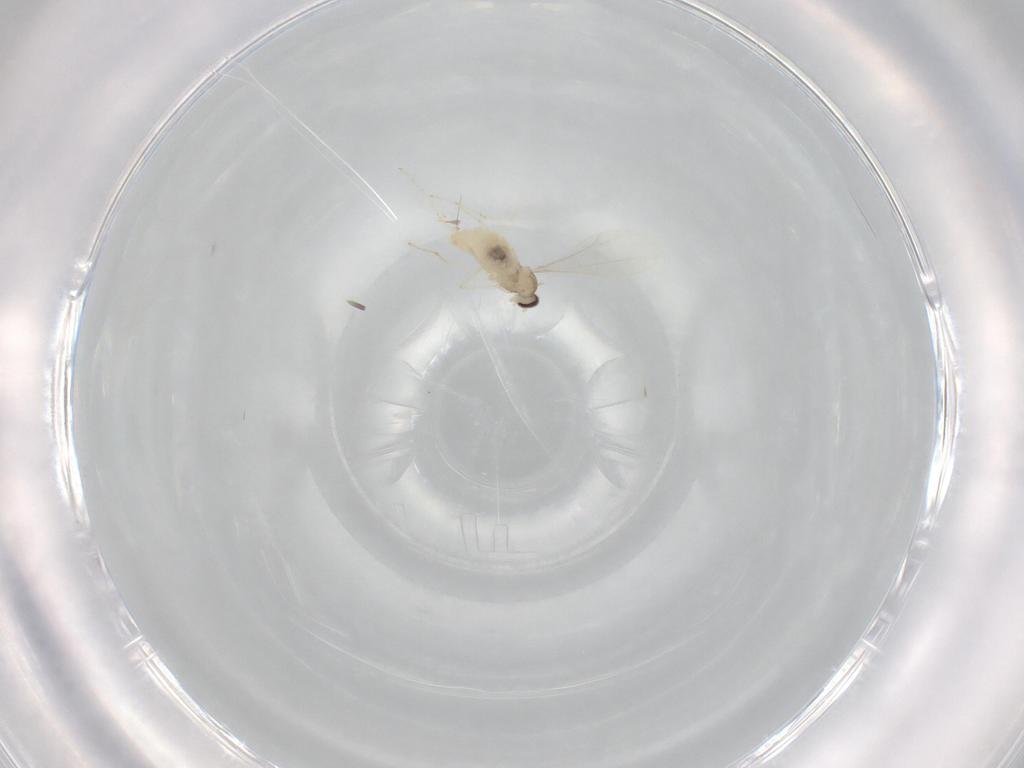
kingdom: Animalia
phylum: Arthropoda
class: Insecta
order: Diptera
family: Cecidomyiidae
